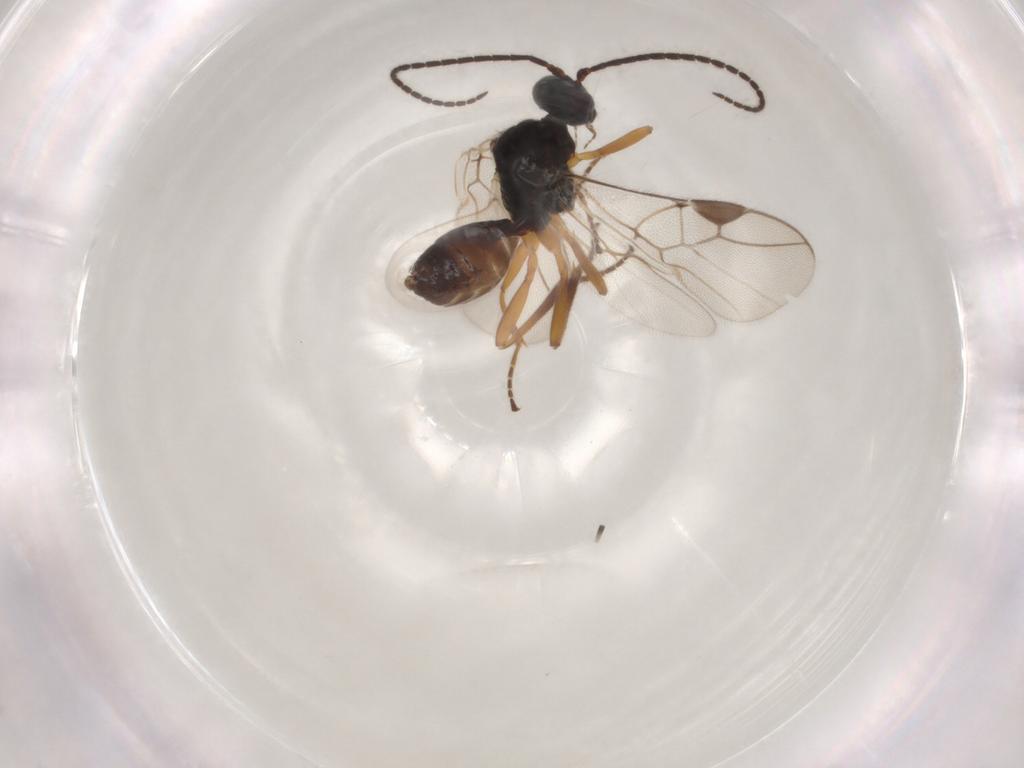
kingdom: Animalia
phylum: Arthropoda
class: Insecta
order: Hymenoptera
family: Braconidae
